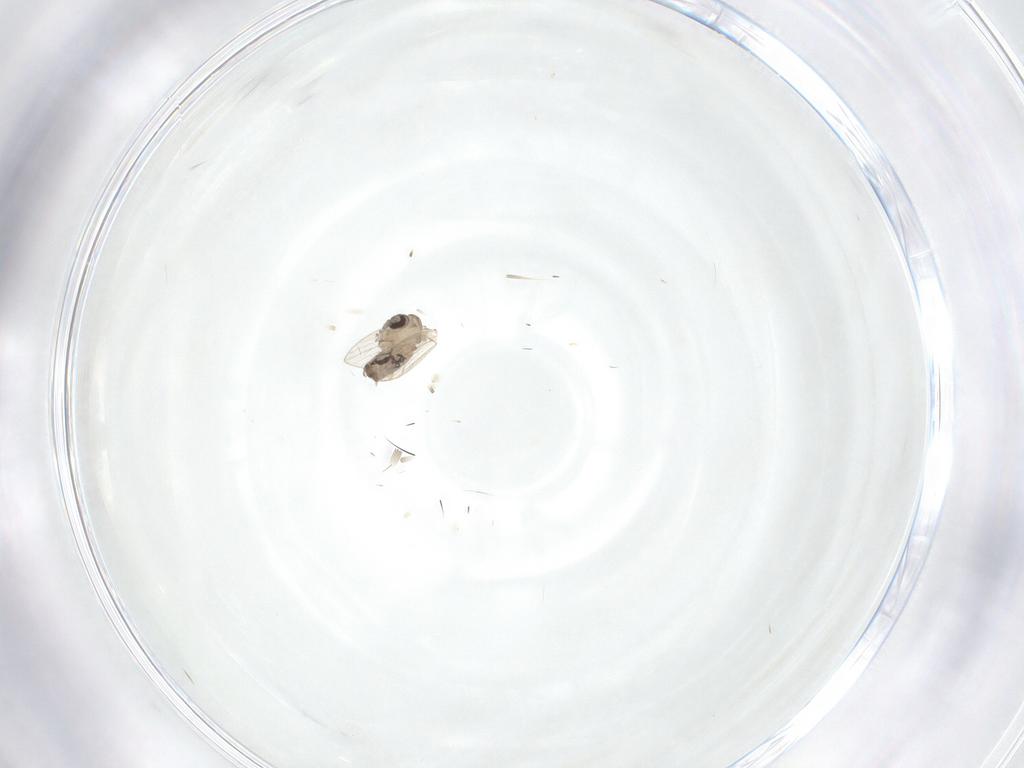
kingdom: Animalia
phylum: Arthropoda
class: Insecta
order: Diptera
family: Psychodidae
